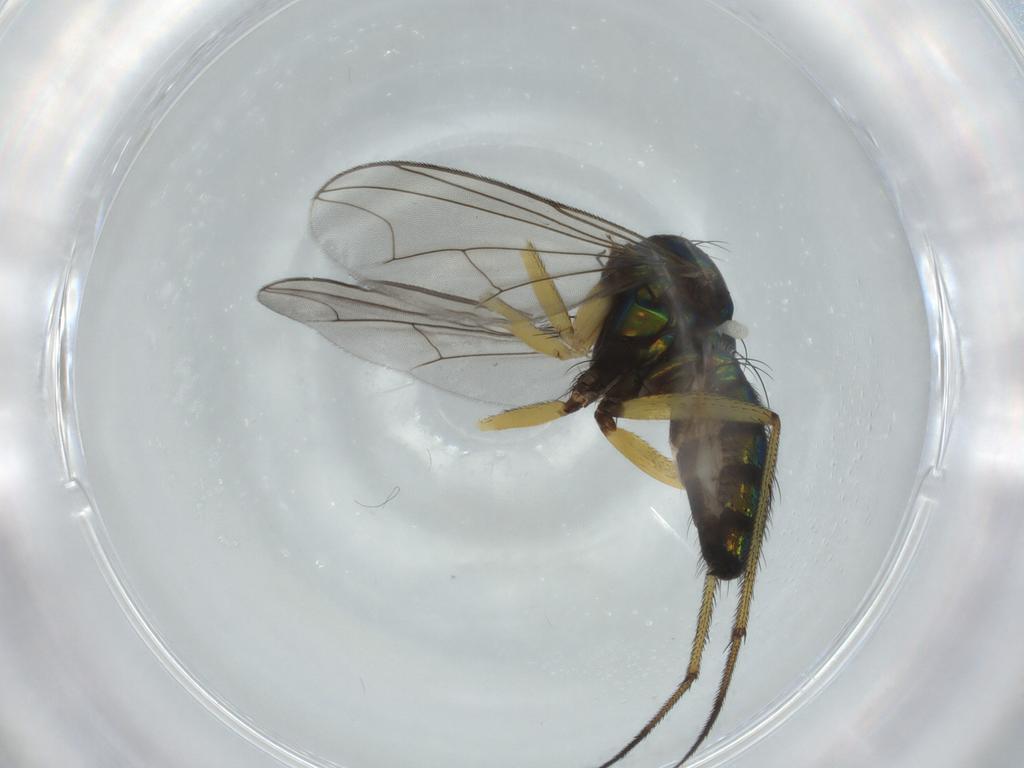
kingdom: Animalia
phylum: Arthropoda
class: Insecta
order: Diptera
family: Dolichopodidae
